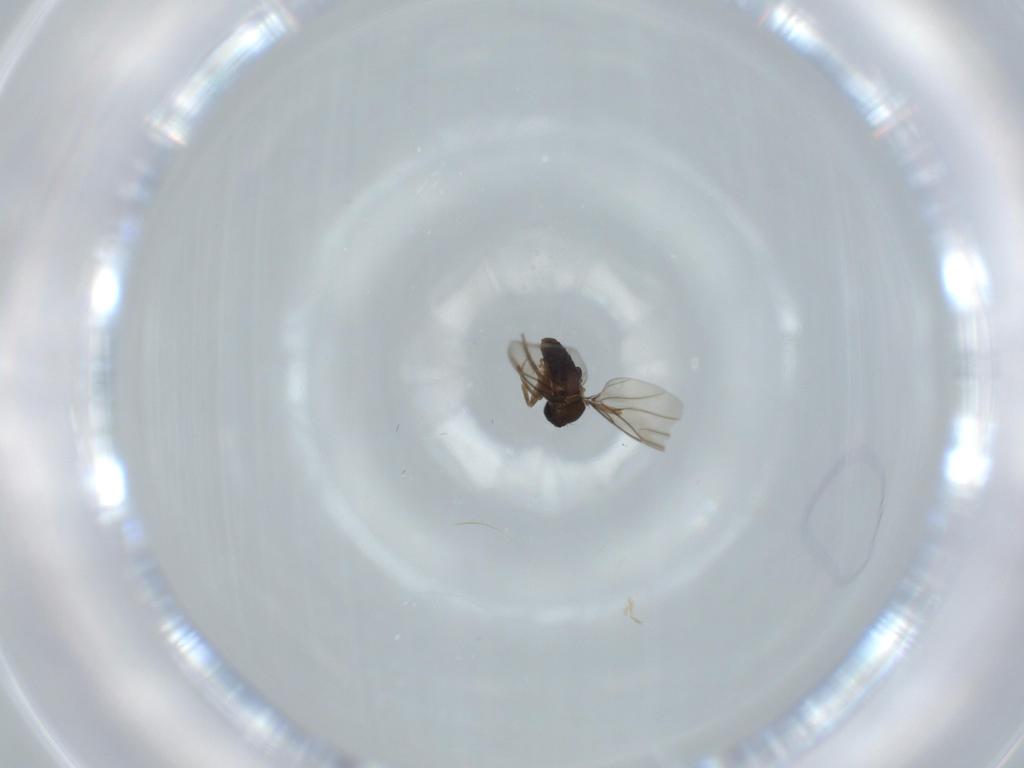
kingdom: Animalia
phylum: Arthropoda
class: Insecta
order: Diptera
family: Phoridae
